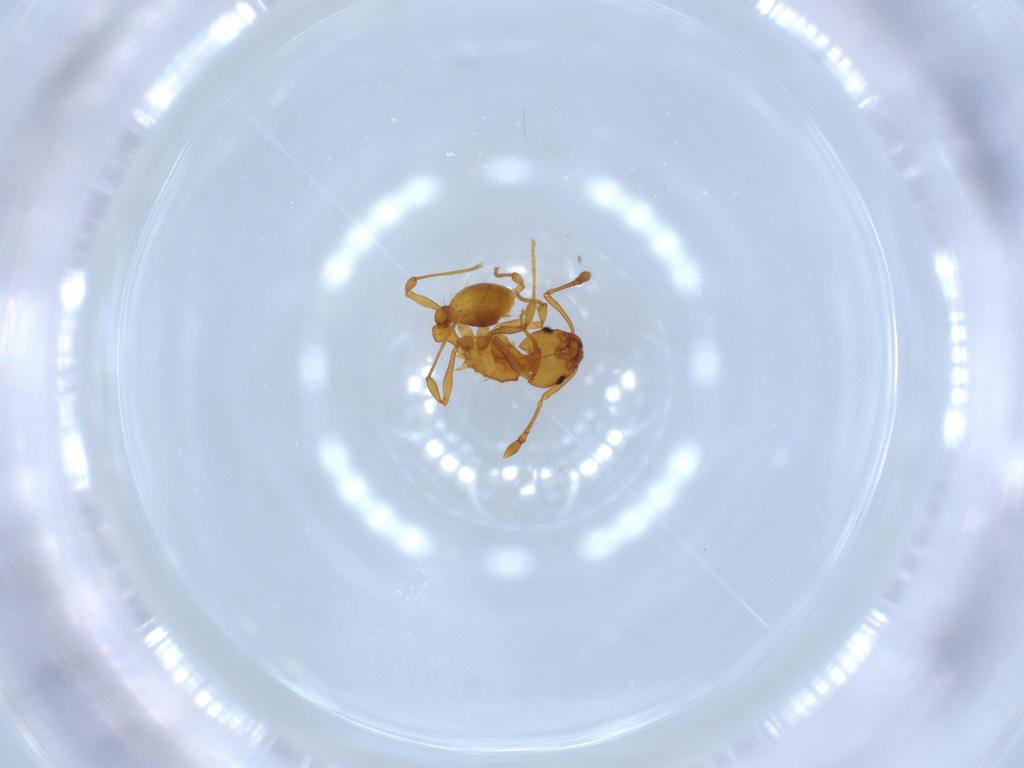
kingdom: Animalia
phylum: Arthropoda
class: Insecta
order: Hymenoptera
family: Formicidae
